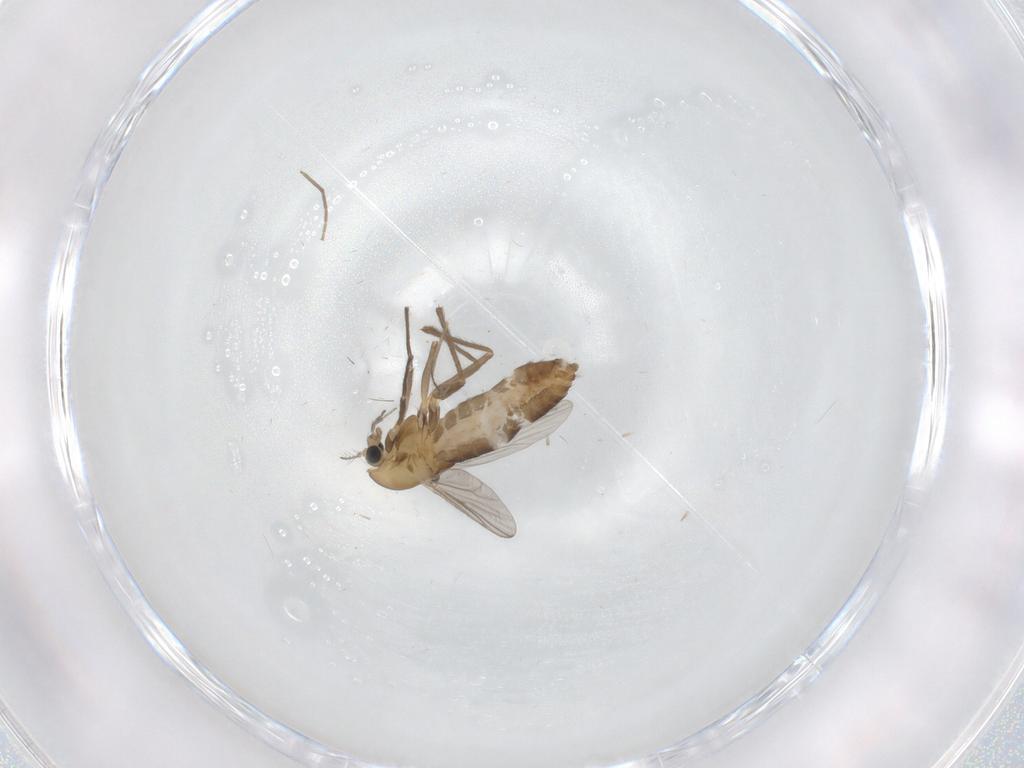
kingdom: Animalia
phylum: Arthropoda
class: Insecta
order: Diptera
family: Chironomidae
